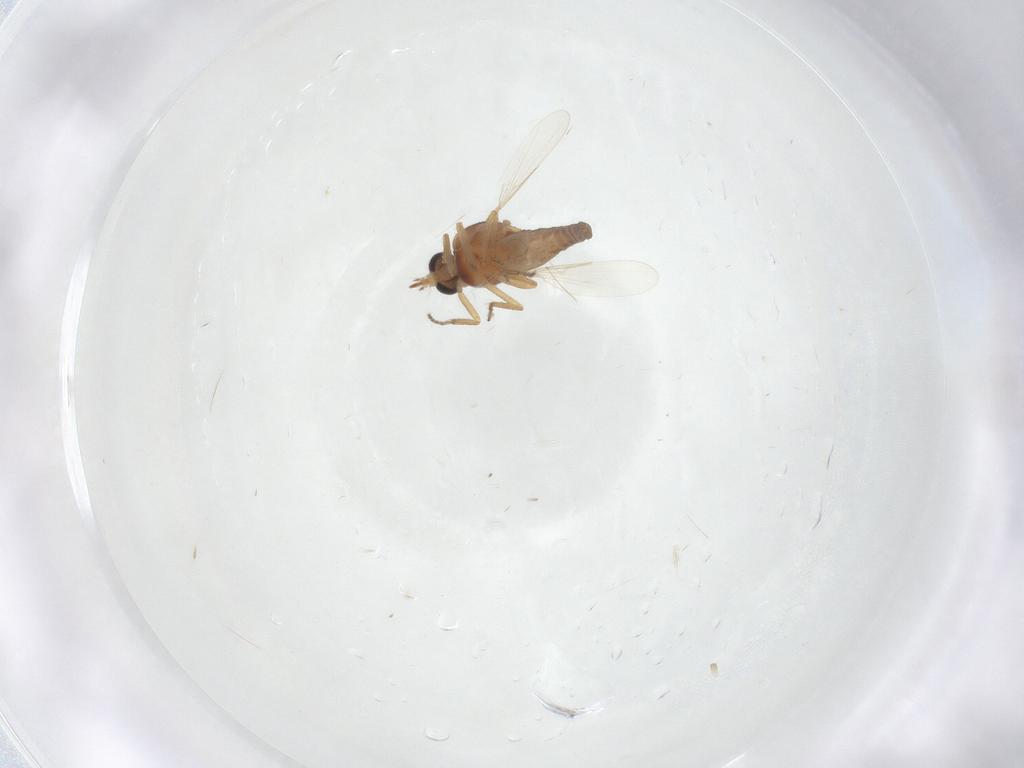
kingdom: Animalia
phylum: Arthropoda
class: Insecta
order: Diptera
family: Ceratopogonidae
